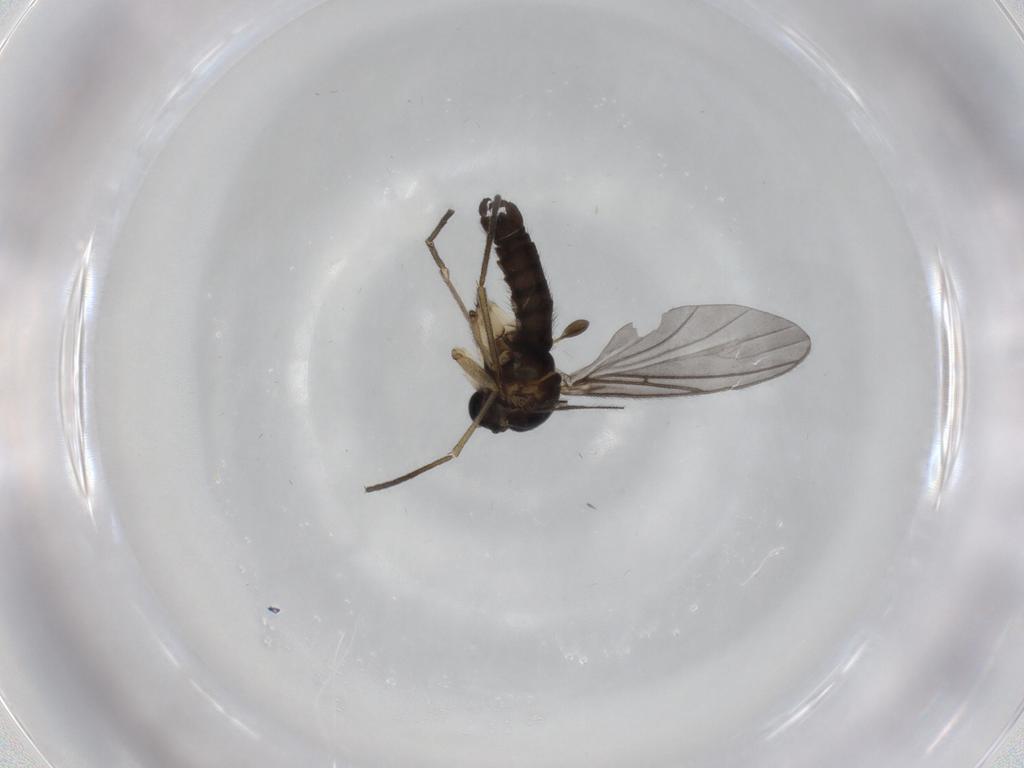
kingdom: Animalia
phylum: Arthropoda
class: Insecta
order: Diptera
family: Sciaridae
